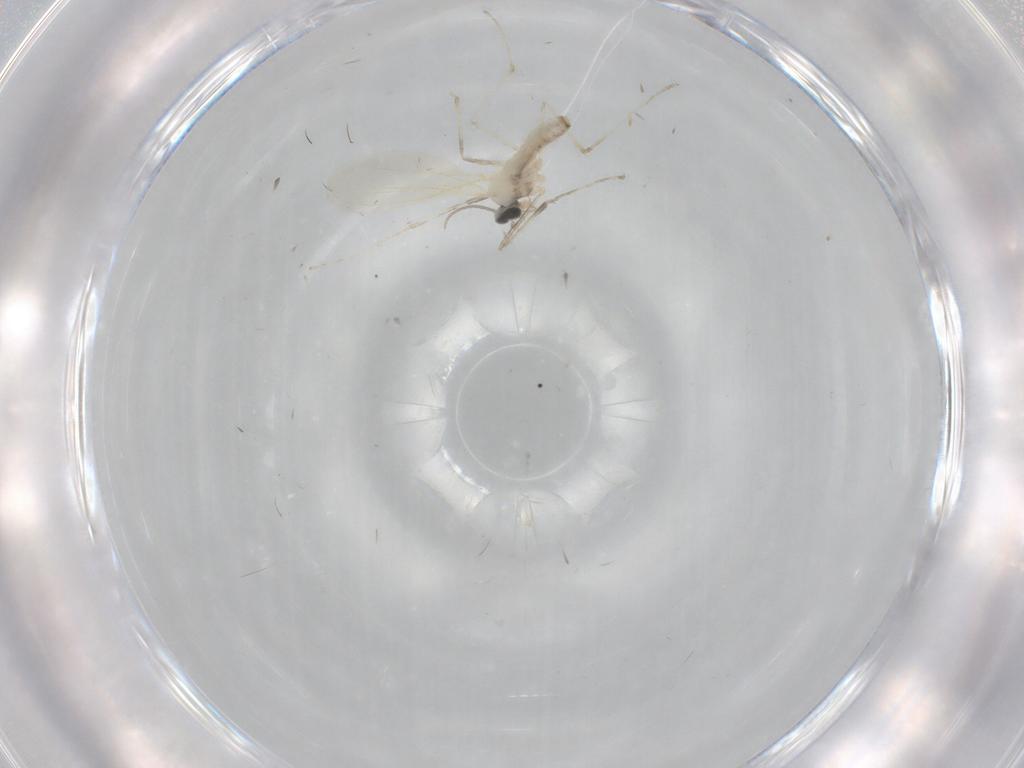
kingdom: Animalia
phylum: Arthropoda
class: Insecta
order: Diptera
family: Cecidomyiidae
